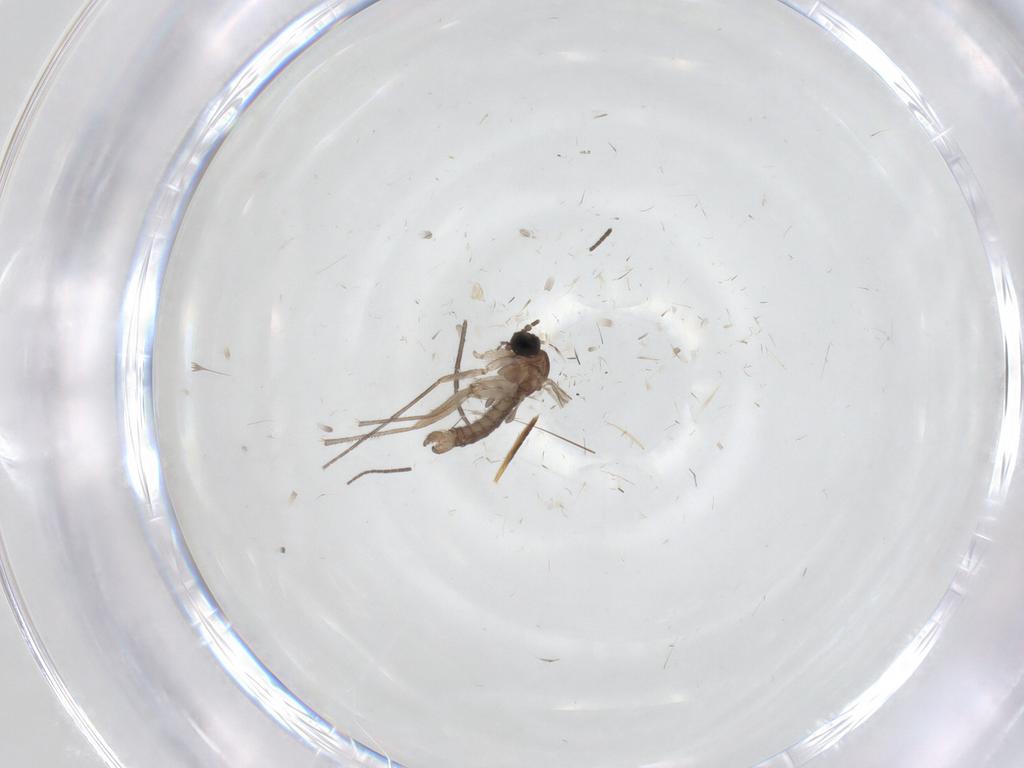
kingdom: Animalia
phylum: Arthropoda
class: Insecta
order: Diptera
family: Sciaridae
